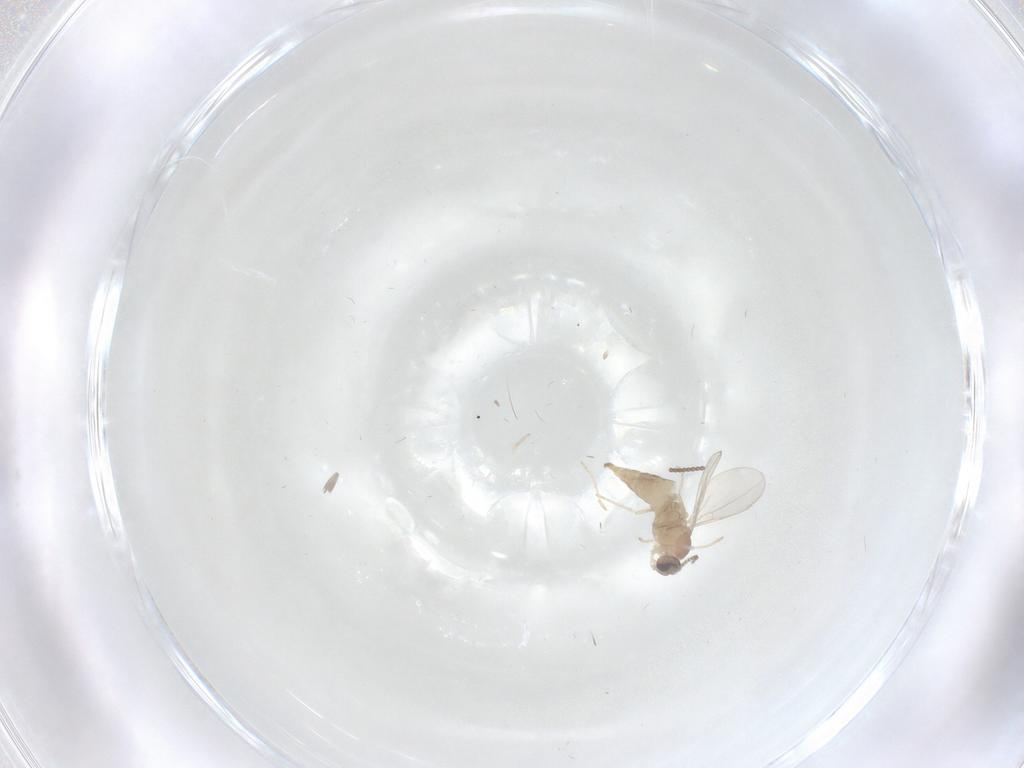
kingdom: Animalia
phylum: Arthropoda
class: Insecta
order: Diptera
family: Cecidomyiidae
